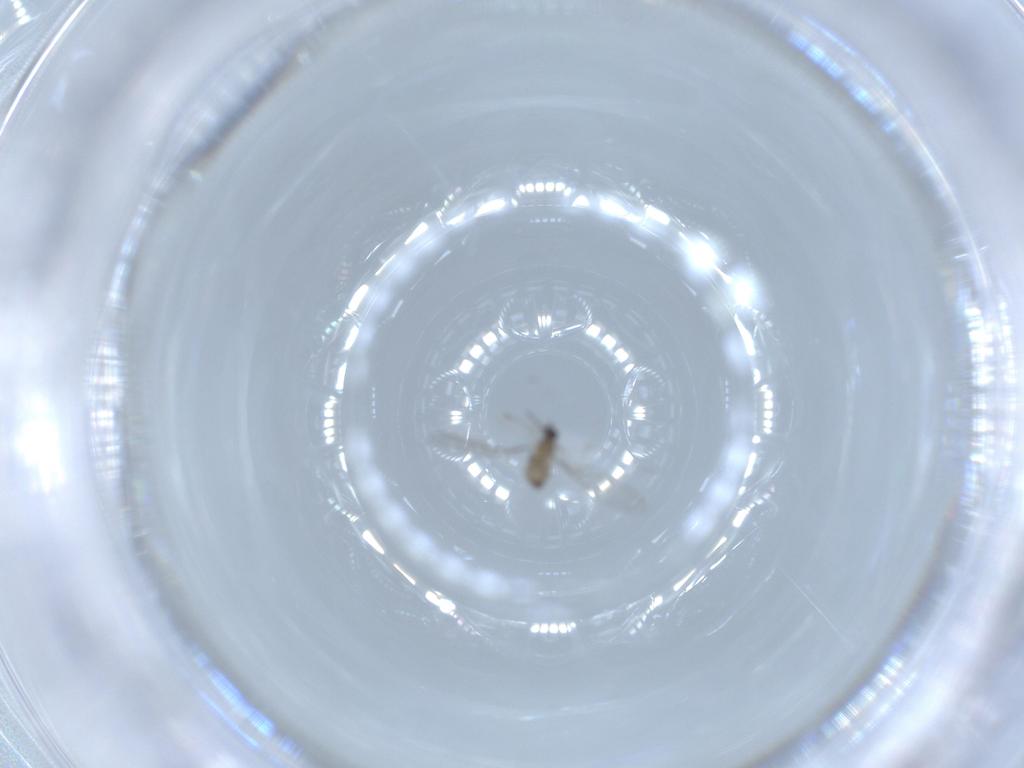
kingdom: Animalia
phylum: Arthropoda
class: Insecta
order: Diptera
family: Cecidomyiidae
